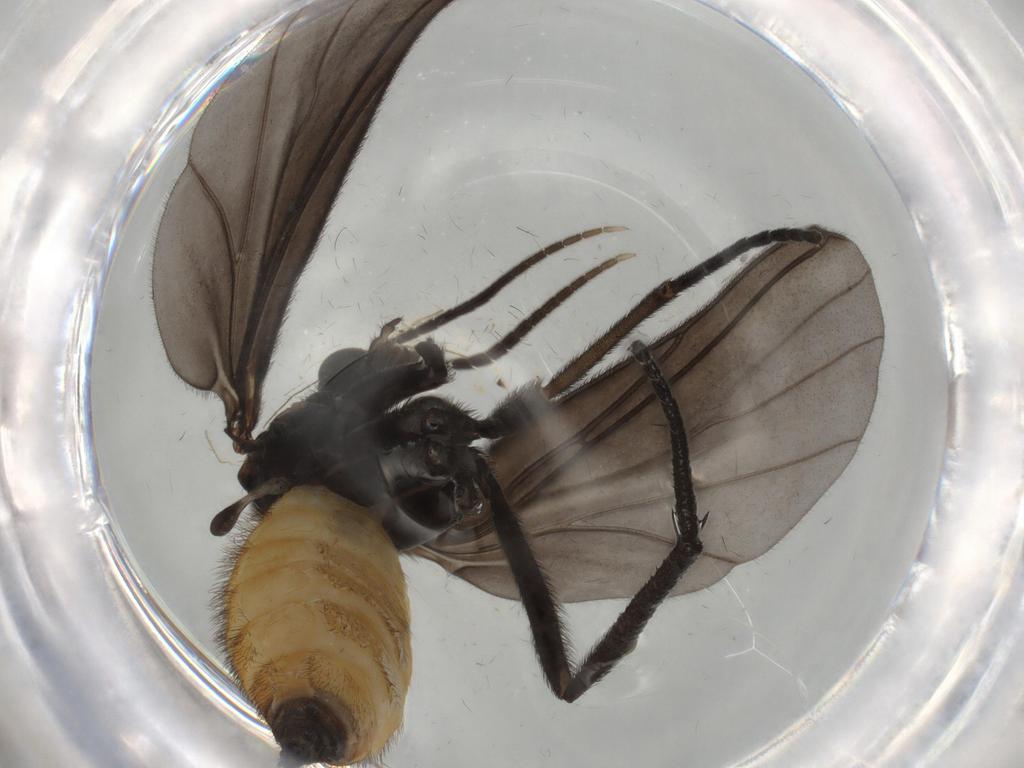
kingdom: Animalia
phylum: Arthropoda
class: Insecta
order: Diptera
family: Sciaridae
